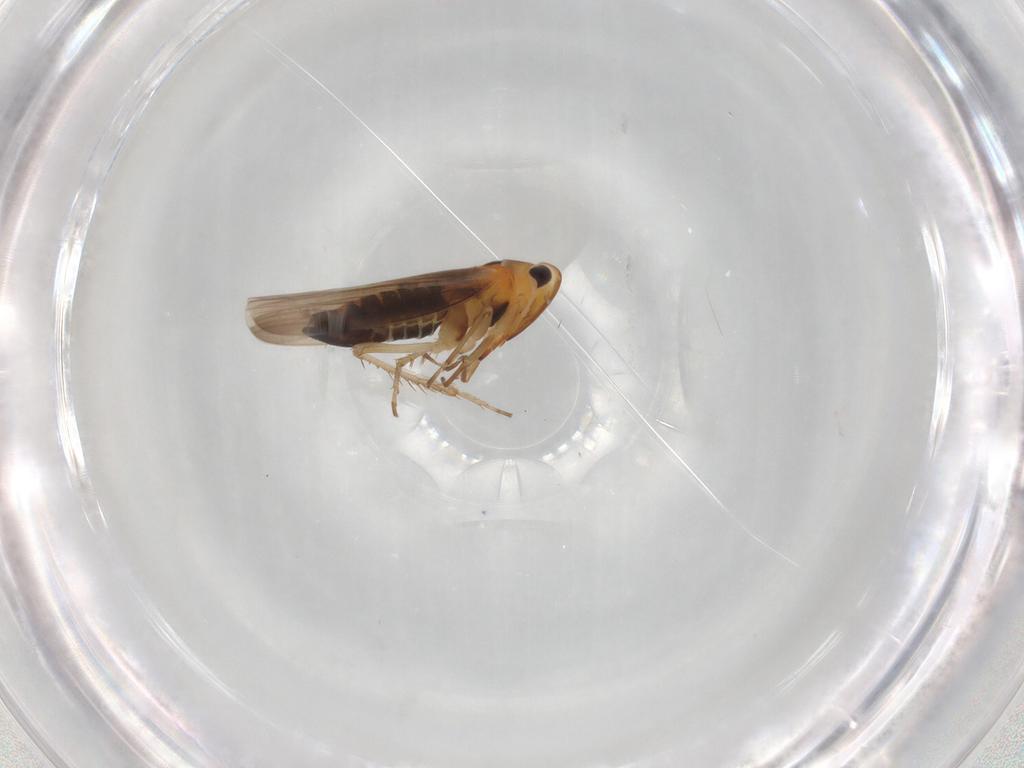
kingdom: Animalia
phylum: Arthropoda
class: Insecta
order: Hemiptera
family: Cicadellidae
